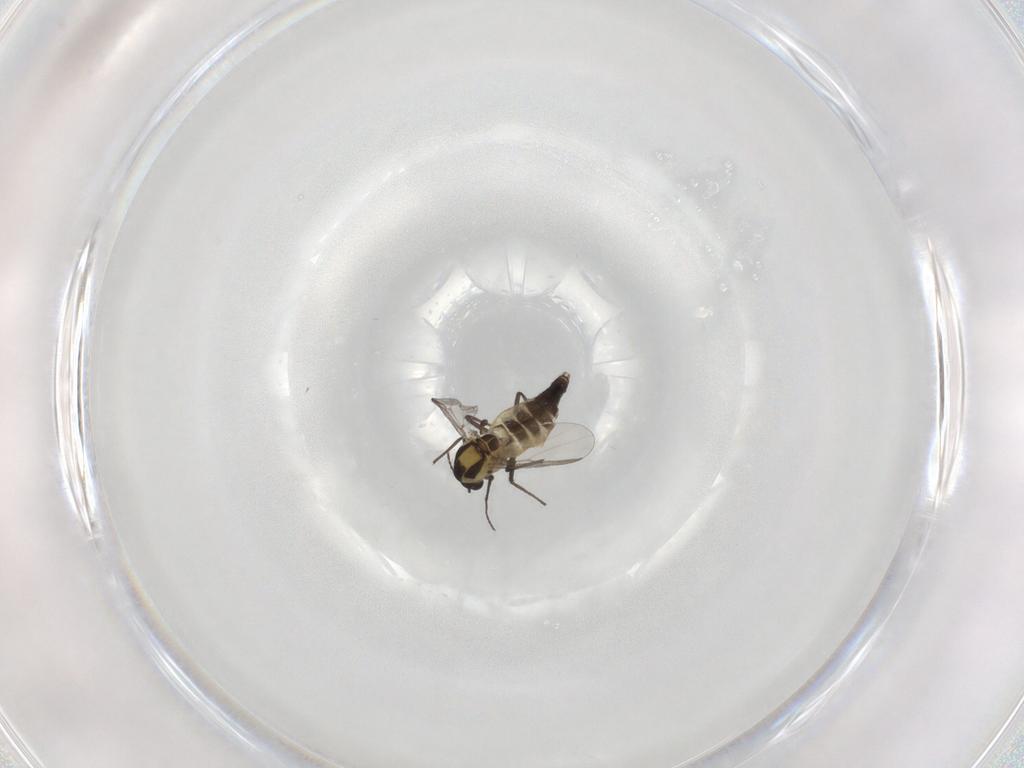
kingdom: Animalia
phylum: Arthropoda
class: Insecta
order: Diptera
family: Chironomidae
